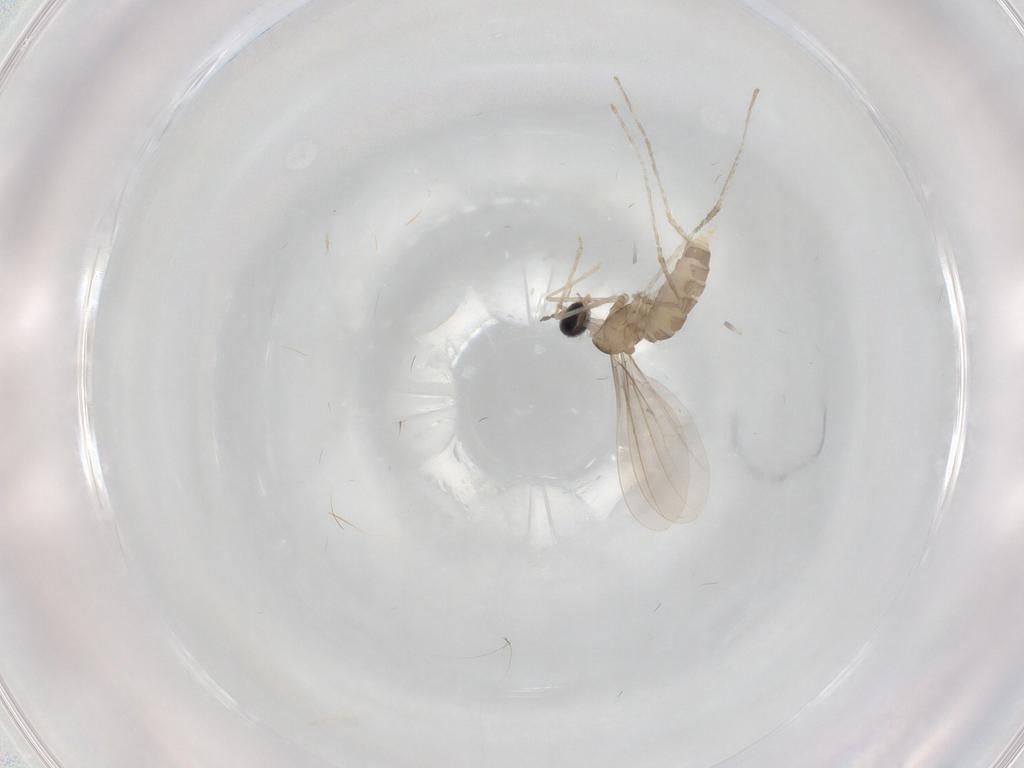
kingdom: Animalia
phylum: Arthropoda
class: Insecta
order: Diptera
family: Cecidomyiidae
